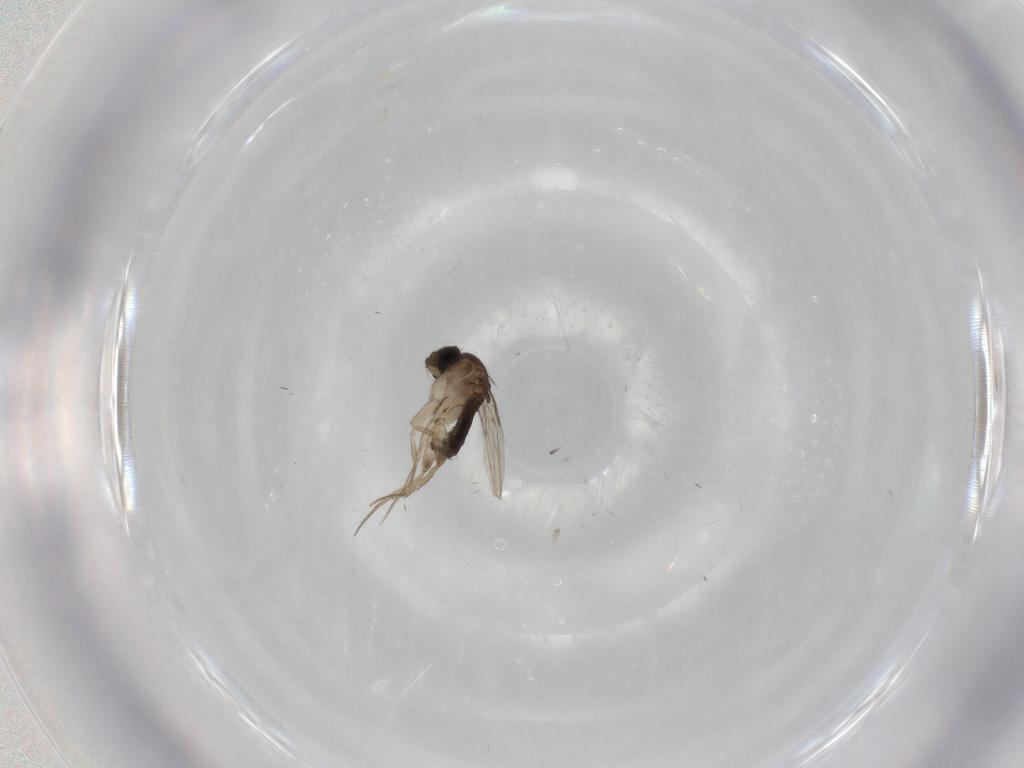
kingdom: Animalia
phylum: Arthropoda
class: Insecta
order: Diptera
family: Phoridae
